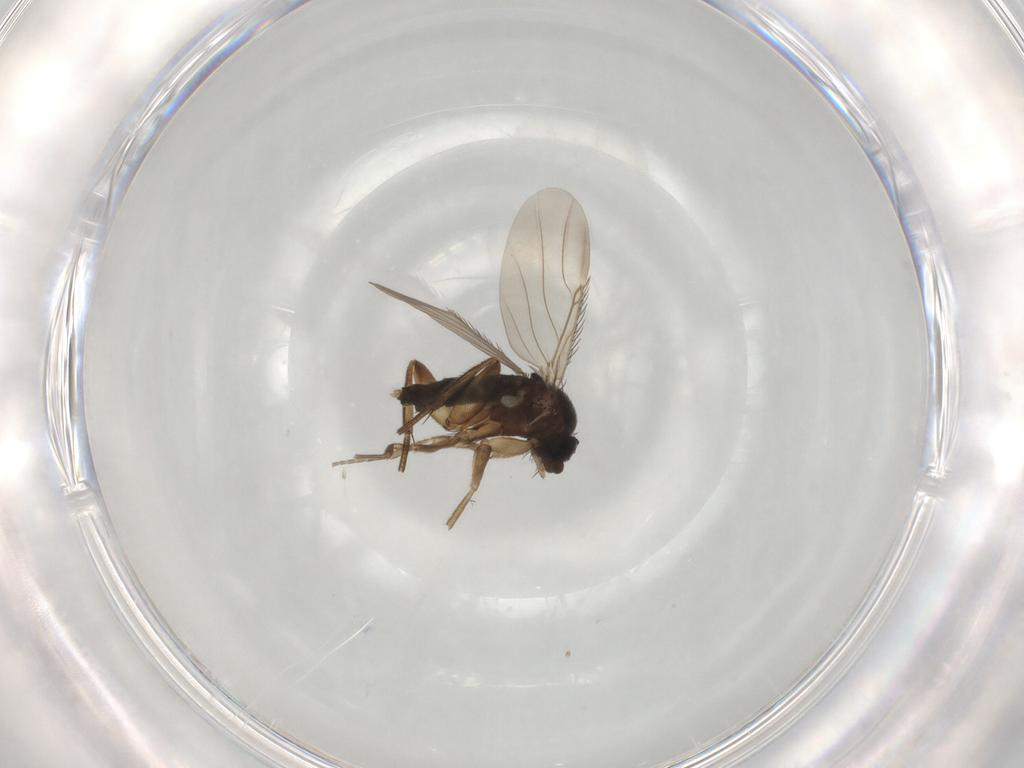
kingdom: Animalia
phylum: Arthropoda
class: Insecta
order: Diptera
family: Phoridae
